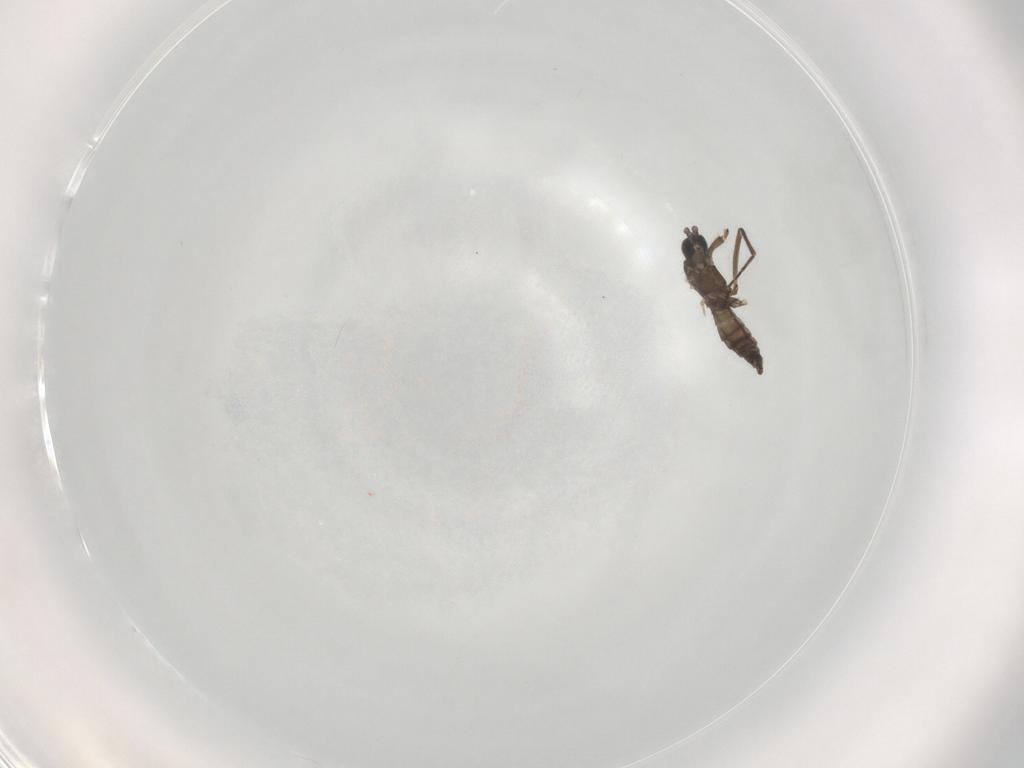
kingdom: Animalia
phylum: Arthropoda
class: Insecta
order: Diptera
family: Sciaridae
